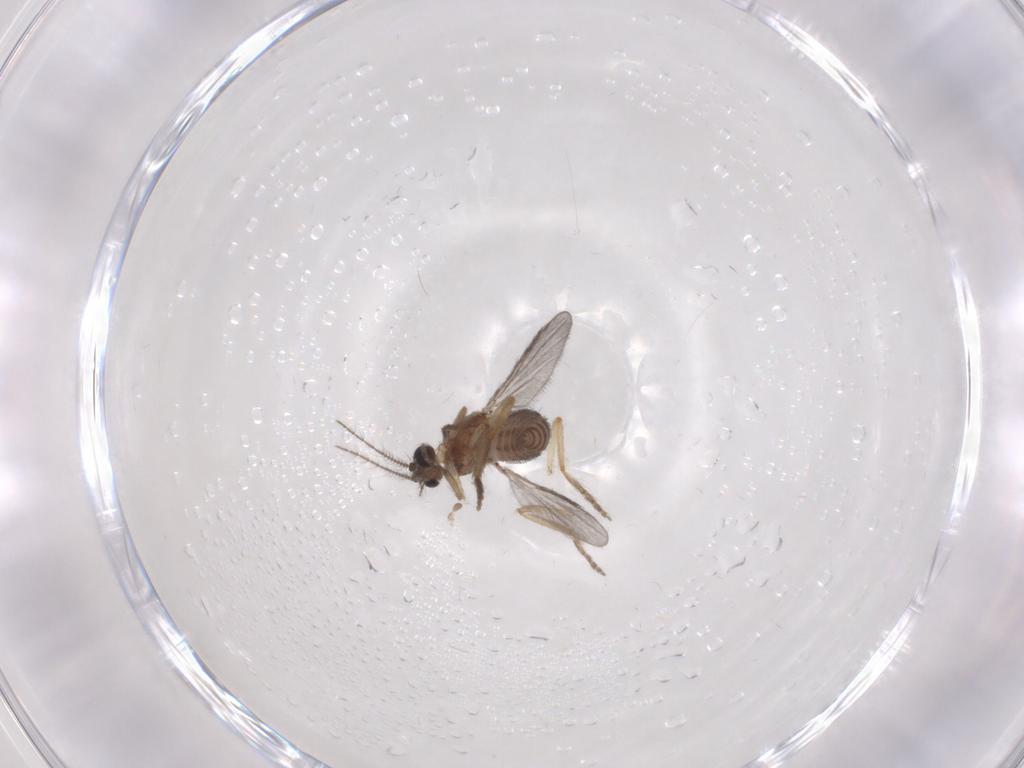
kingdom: Animalia
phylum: Arthropoda
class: Insecta
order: Diptera
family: Ceratopogonidae
